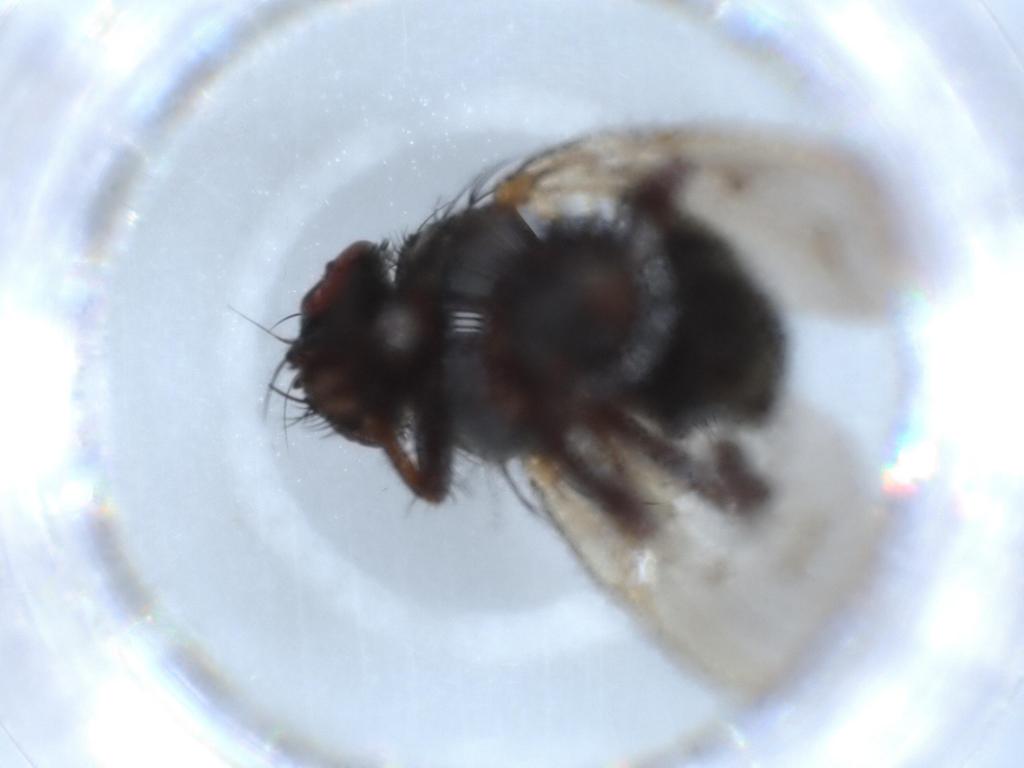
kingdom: Animalia
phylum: Arthropoda
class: Insecta
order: Diptera
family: Muscidae
